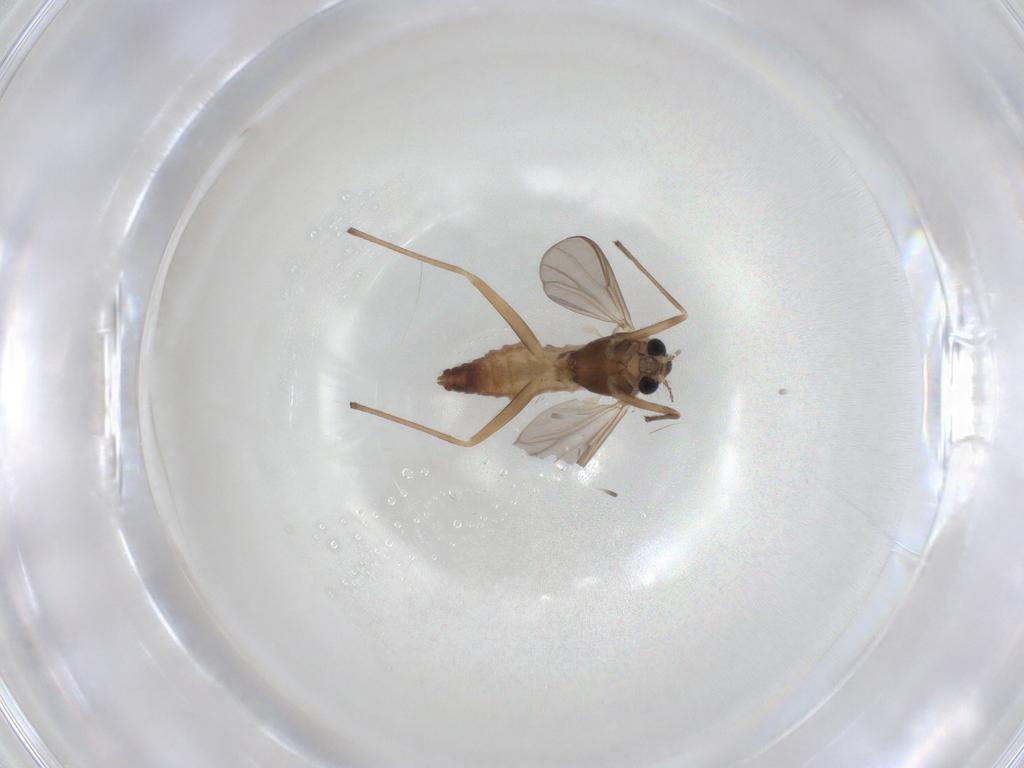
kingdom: Animalia
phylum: Arthropoda
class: Insecta
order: Diptera
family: Chironomidae
